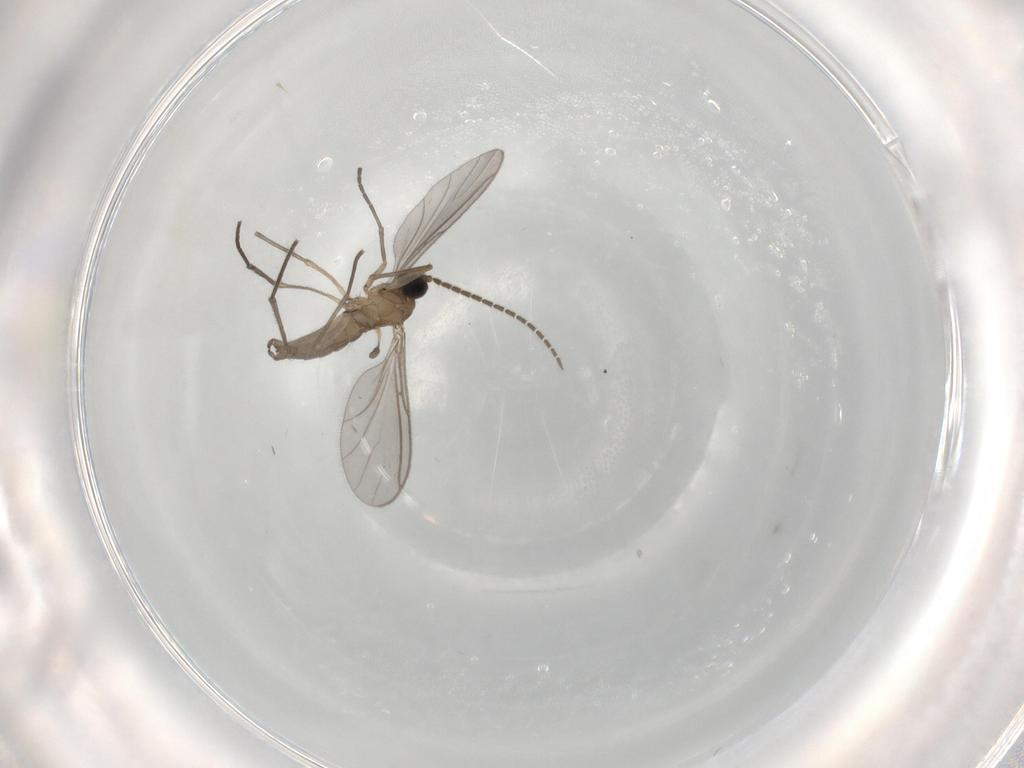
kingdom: Animalia
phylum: Arthropoda
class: Insecta
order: Diptera
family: Sciaridae
